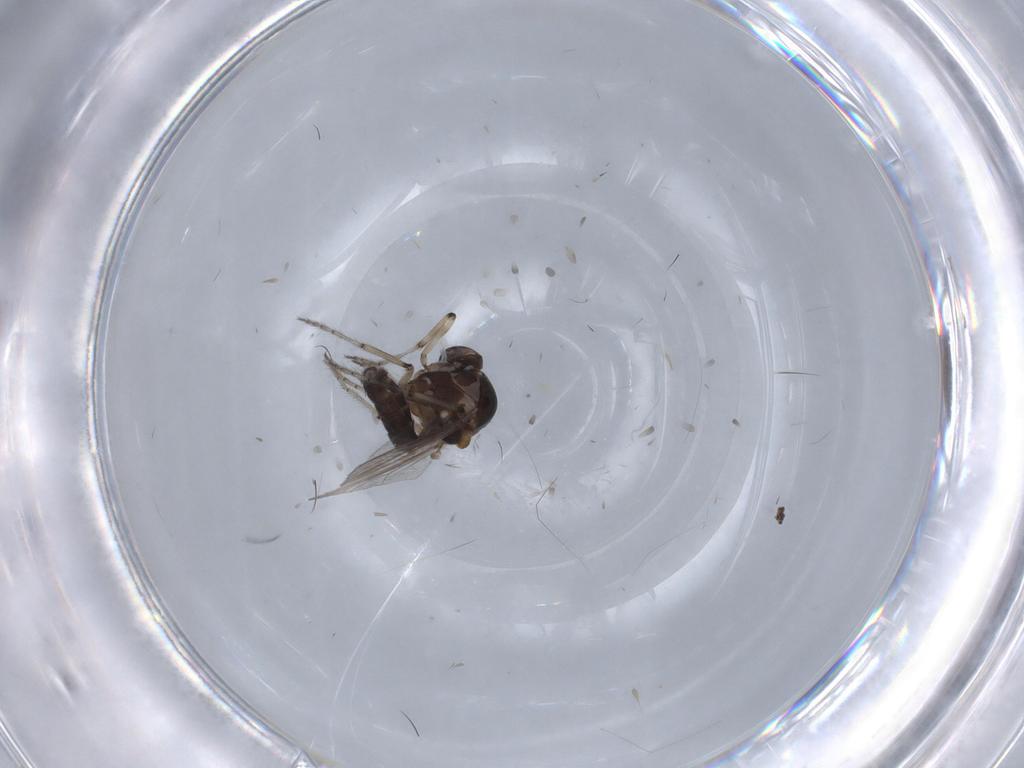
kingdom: Animalia
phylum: Arthropoda
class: Insecta
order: Diptera
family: Ceratopogonidae
